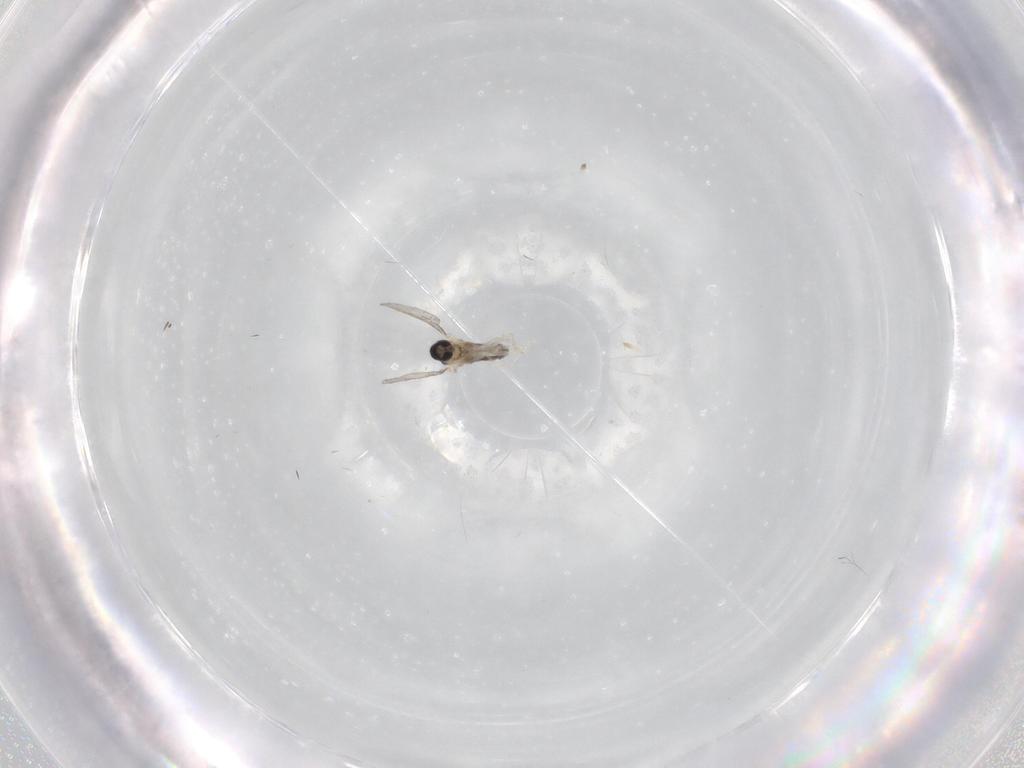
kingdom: Animalia
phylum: Arthropoda
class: Insecta
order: Diptera
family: Cecidomyiidae
